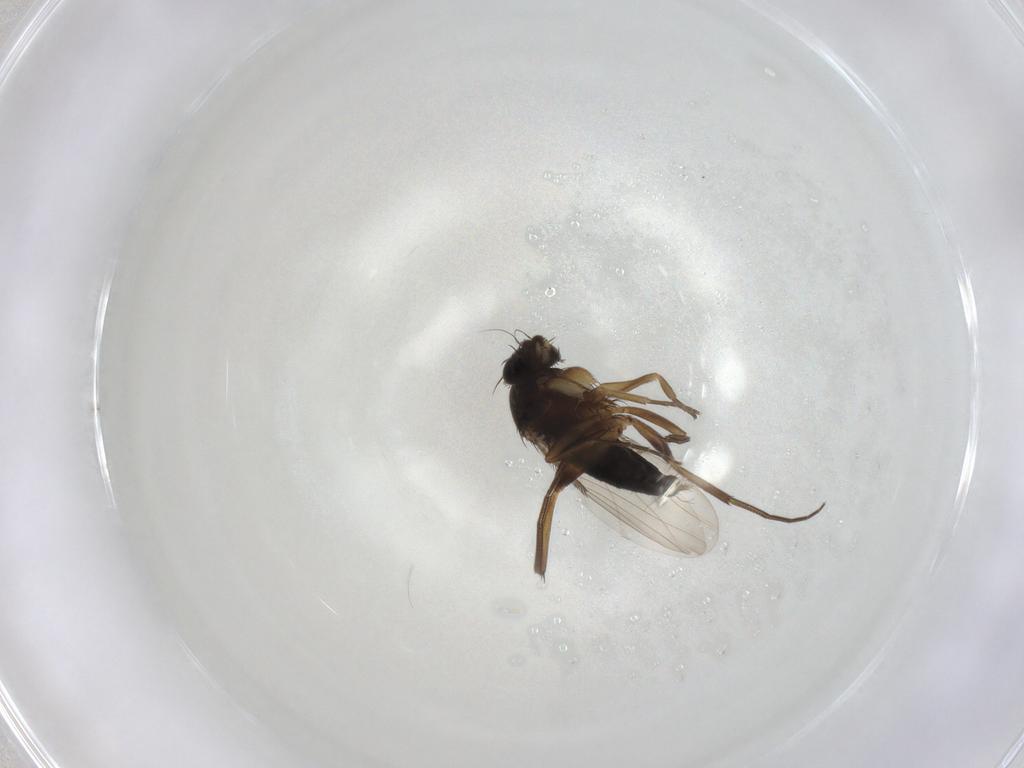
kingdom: Animalia
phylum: Arthropoda
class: Insecta
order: Diptera
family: Phoridae
